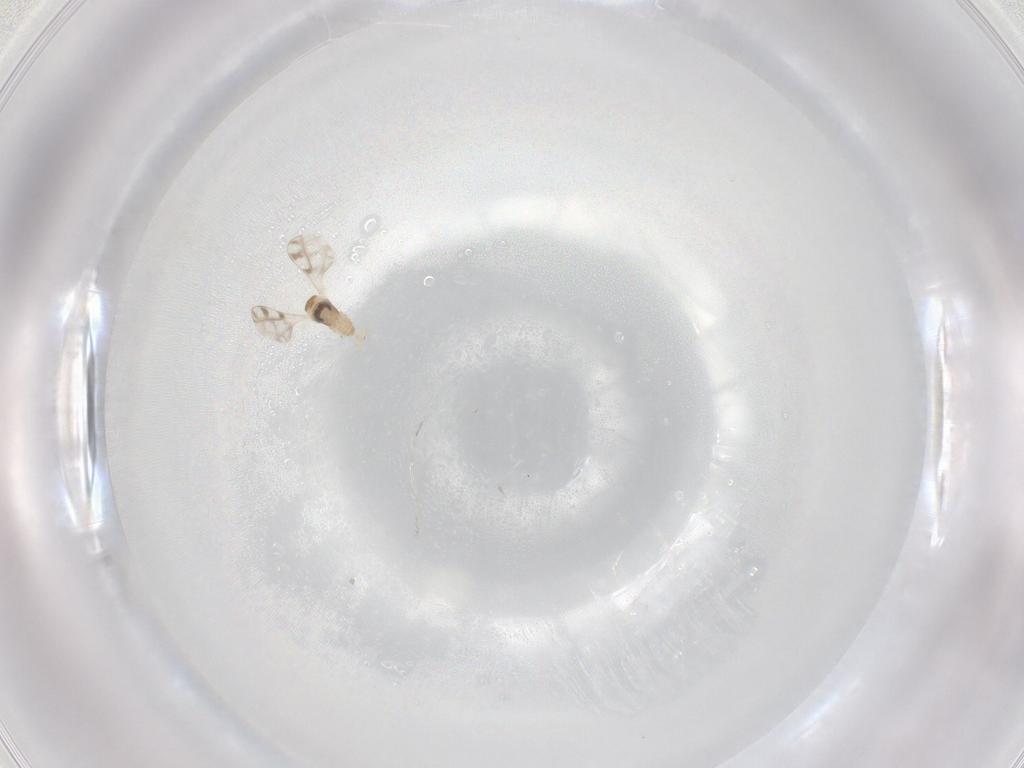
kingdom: Animalia
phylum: Arthropoda
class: Insecta
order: Diptera
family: Cecidomyiidae
